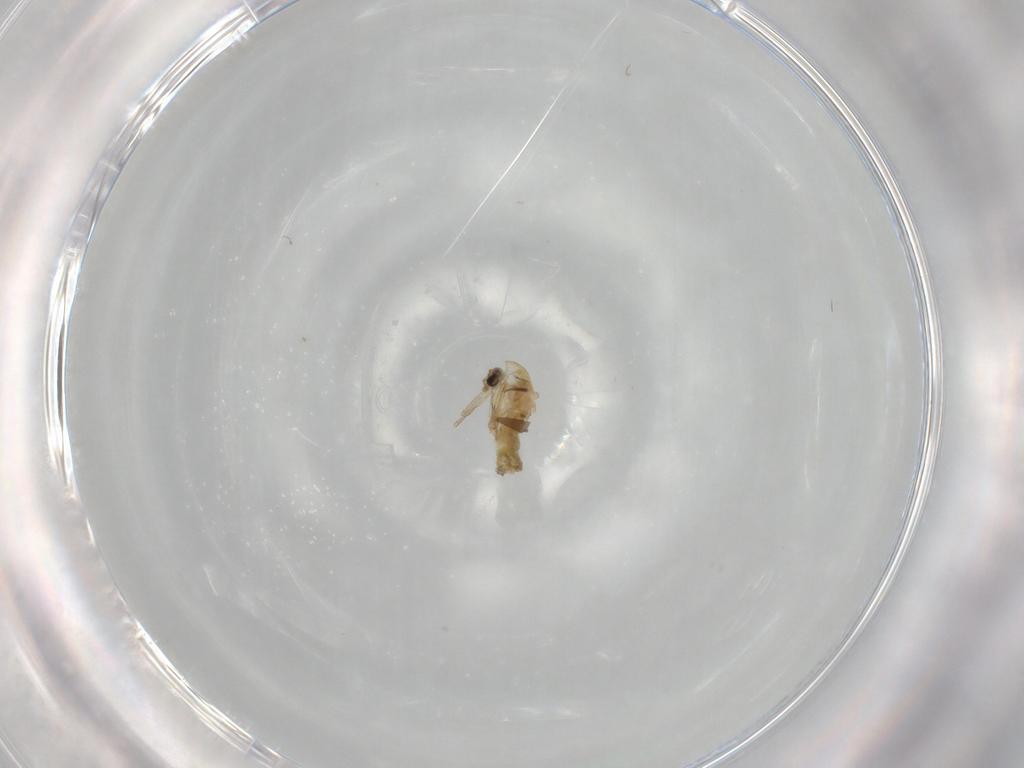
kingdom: Animalia
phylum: Arthropoda
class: Insecta
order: Diptera
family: Chironomidae
